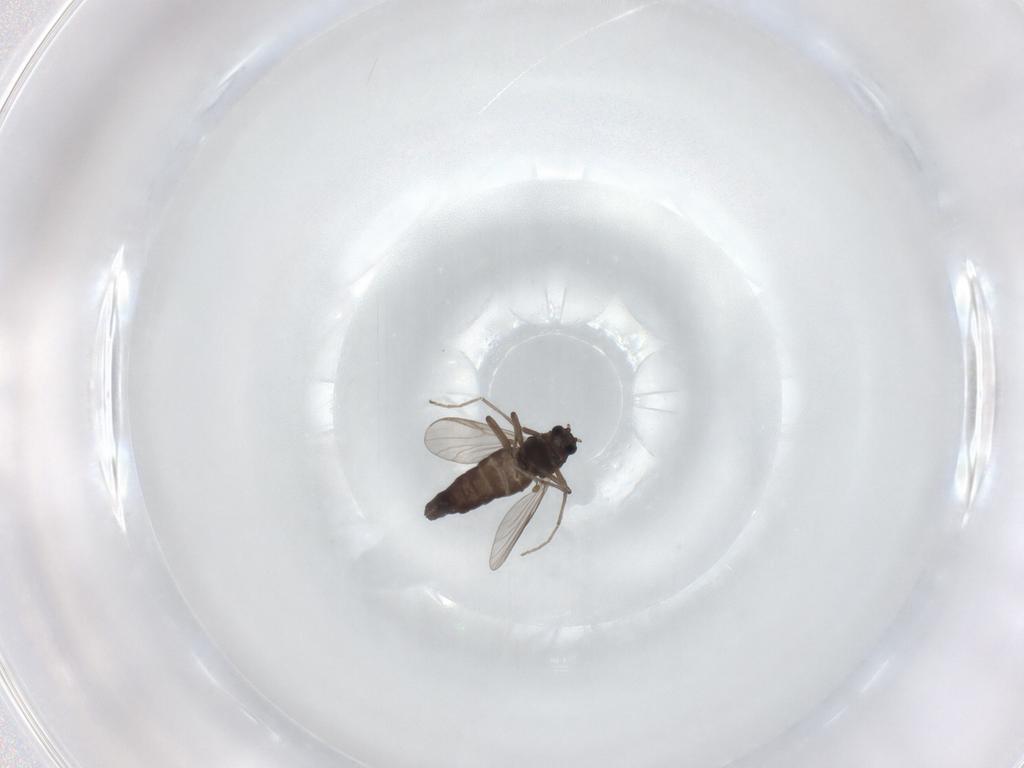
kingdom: Animalia
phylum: Arthropoda
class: Insecta
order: Diptera
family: Chironomidae
